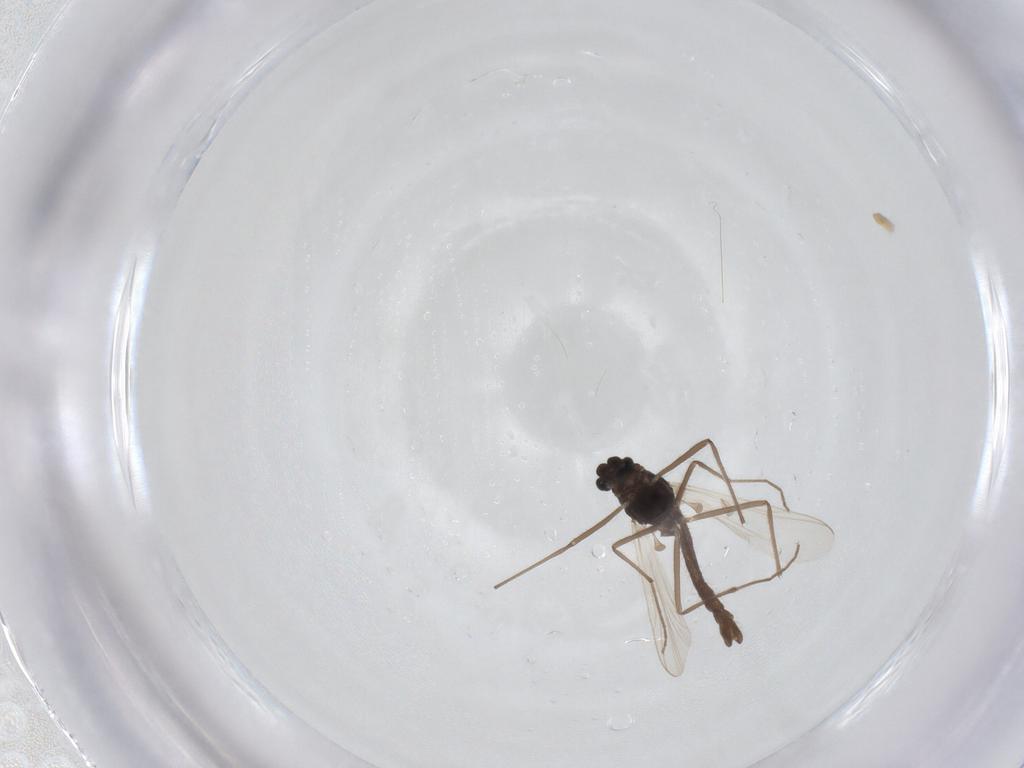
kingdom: Animalia
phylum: Arthropoda
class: Insecta
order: Diptera
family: Chironomidae
